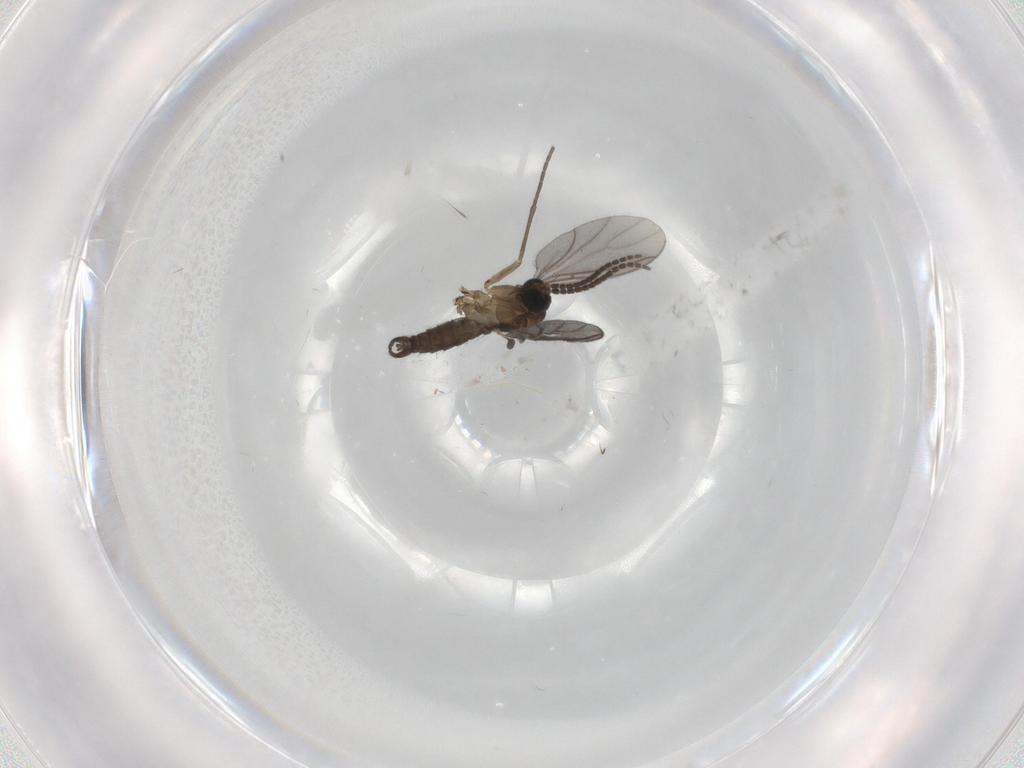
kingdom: Animalia
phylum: Arthropoda
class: Insecta
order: Diptera
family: Sciaridae
